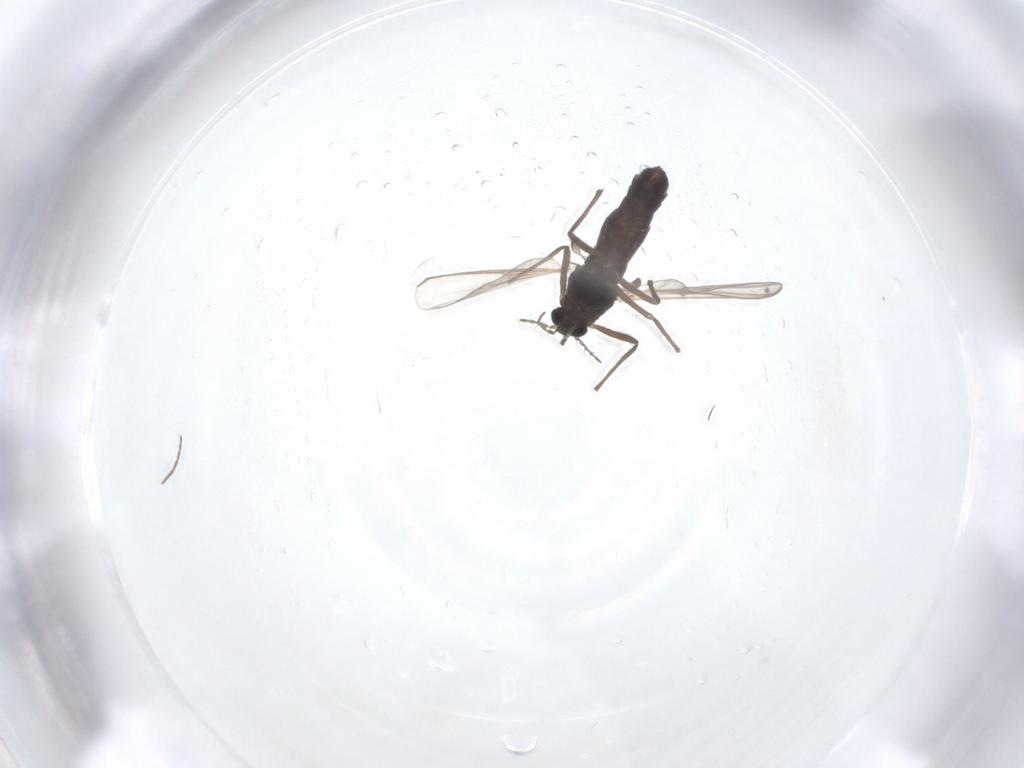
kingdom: Animalia
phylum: Arthropoda
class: Insecta
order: Diptera
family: Chironomidae
